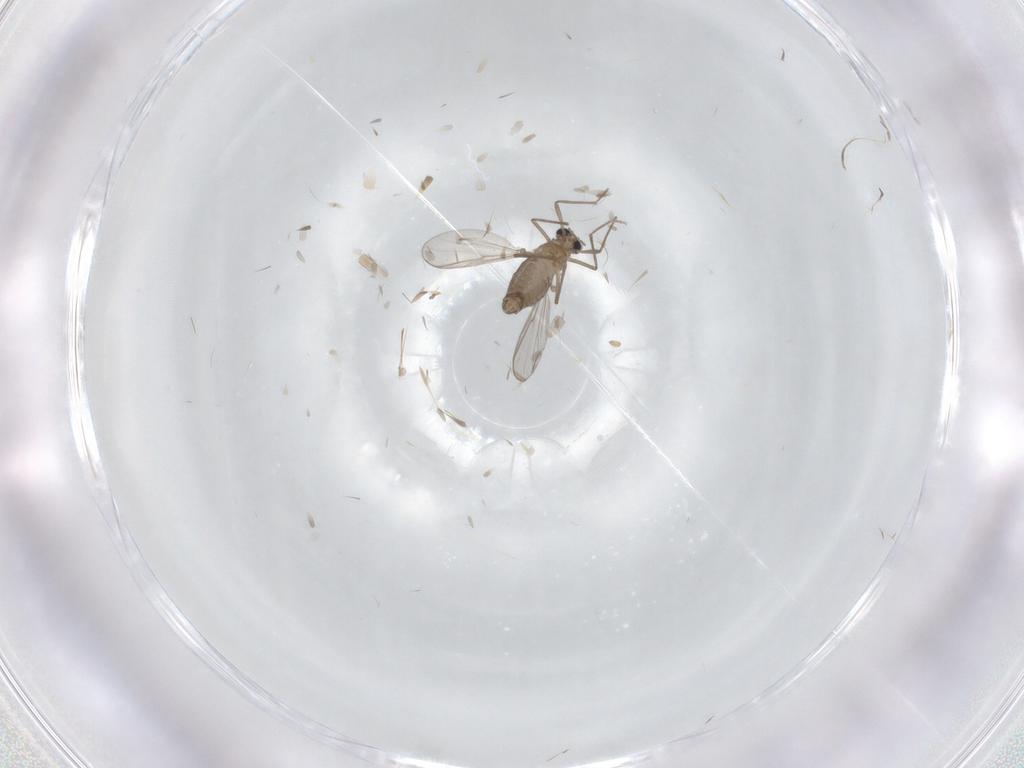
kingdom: Animalia
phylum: Arthropoda
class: Insecta
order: Diptera
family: Chironomidae
